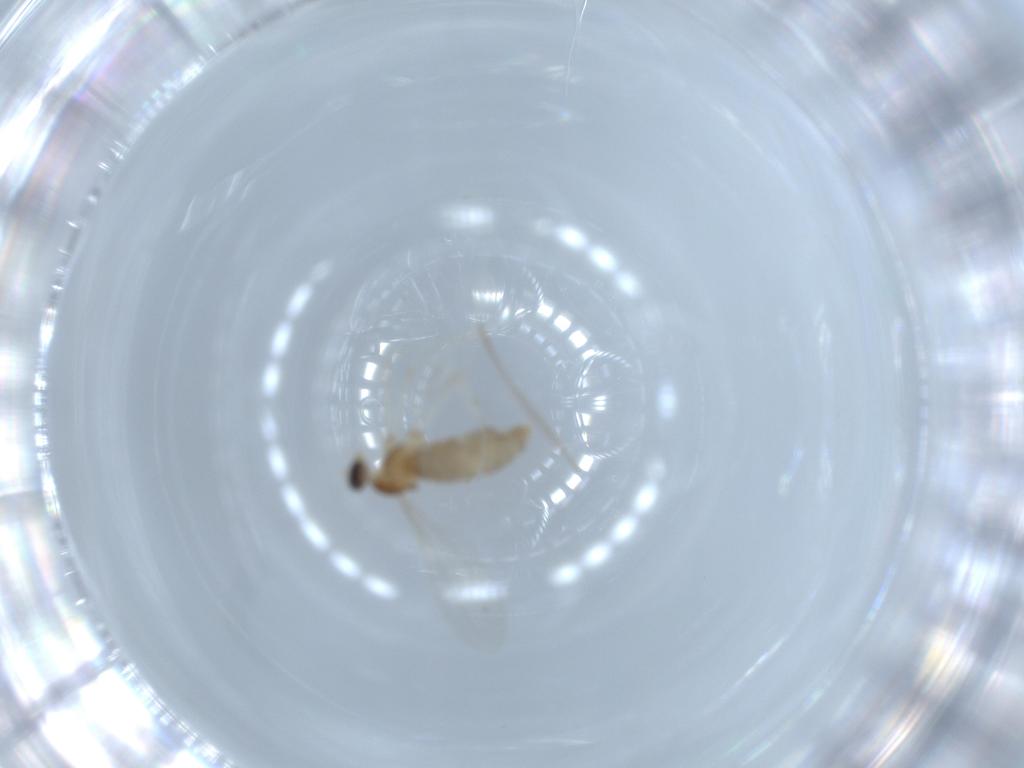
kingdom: Animalia
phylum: Arthropoda
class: Insecta
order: Diptera
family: Cecidomyiidae
